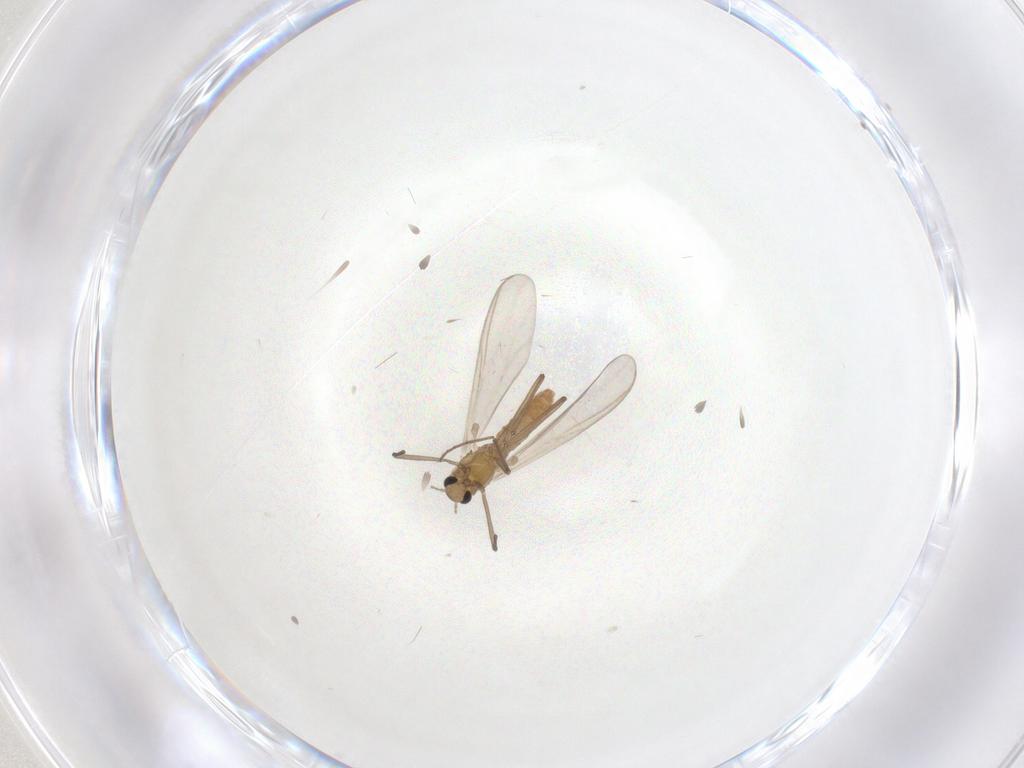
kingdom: Animalia
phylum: Arthropoda
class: Insecta
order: Diptera
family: Chironomidae
